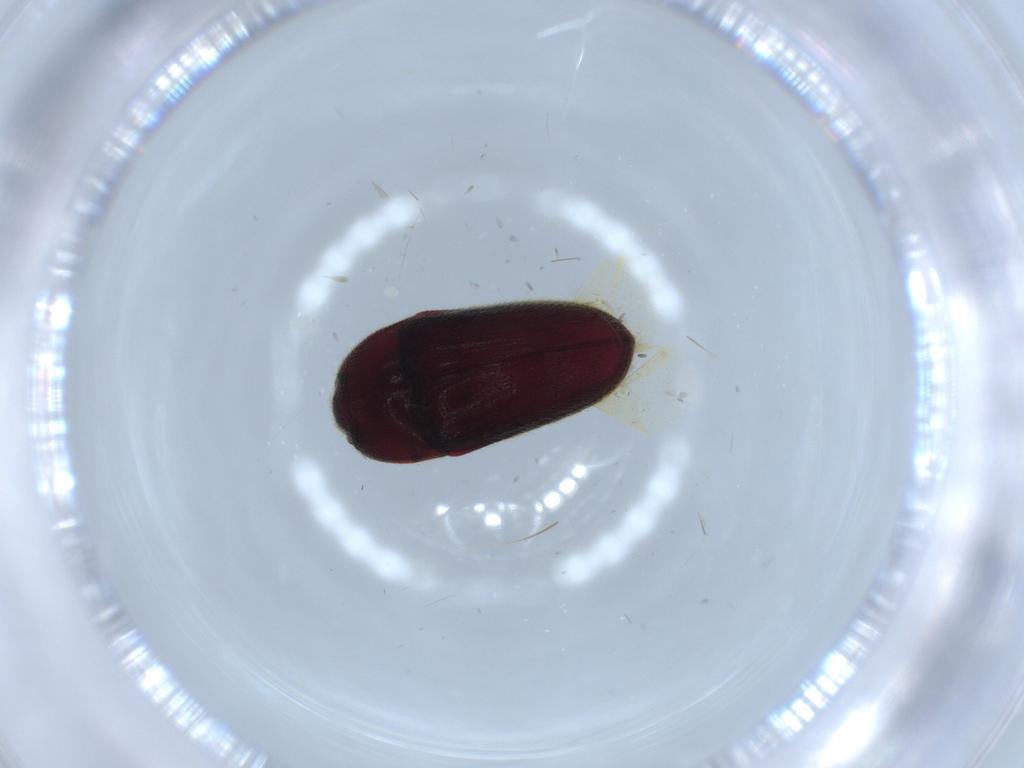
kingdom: Animalia
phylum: Arthropoda
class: Insecta
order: Coleoptera
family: Throscidae
